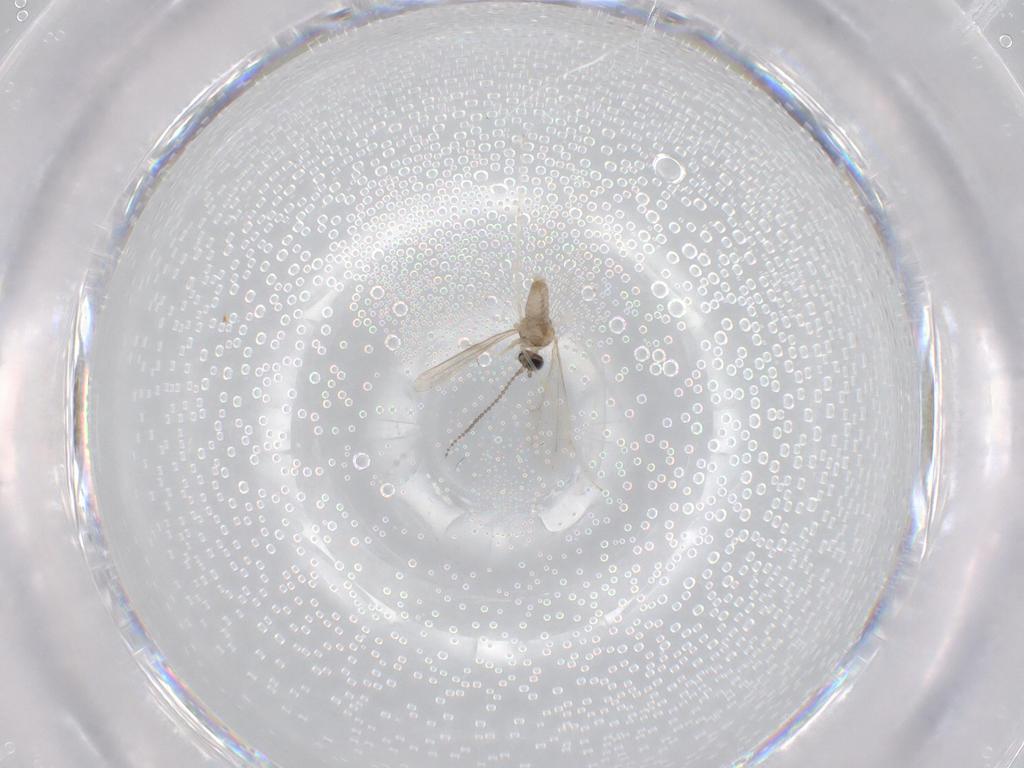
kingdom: Animalia
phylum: Arthropoda
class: Insecta
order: Diptera
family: Cecidomyiidae
